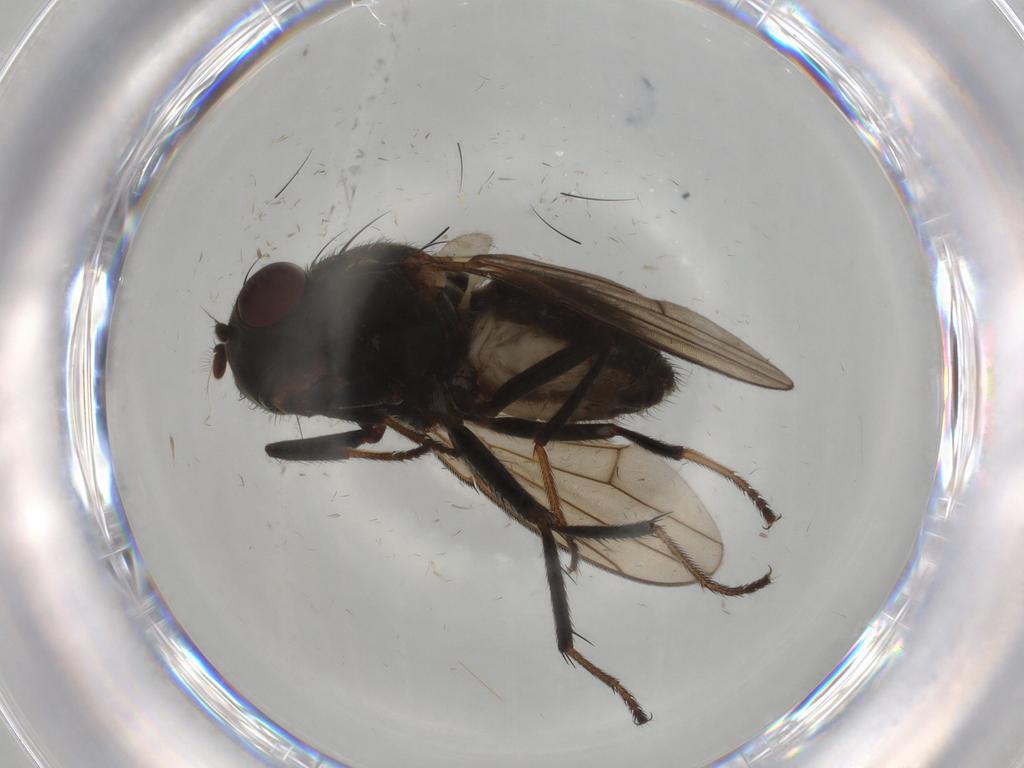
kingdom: Animalia
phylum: Arthropoda
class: Insecta
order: Diptera
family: Ephydridae
